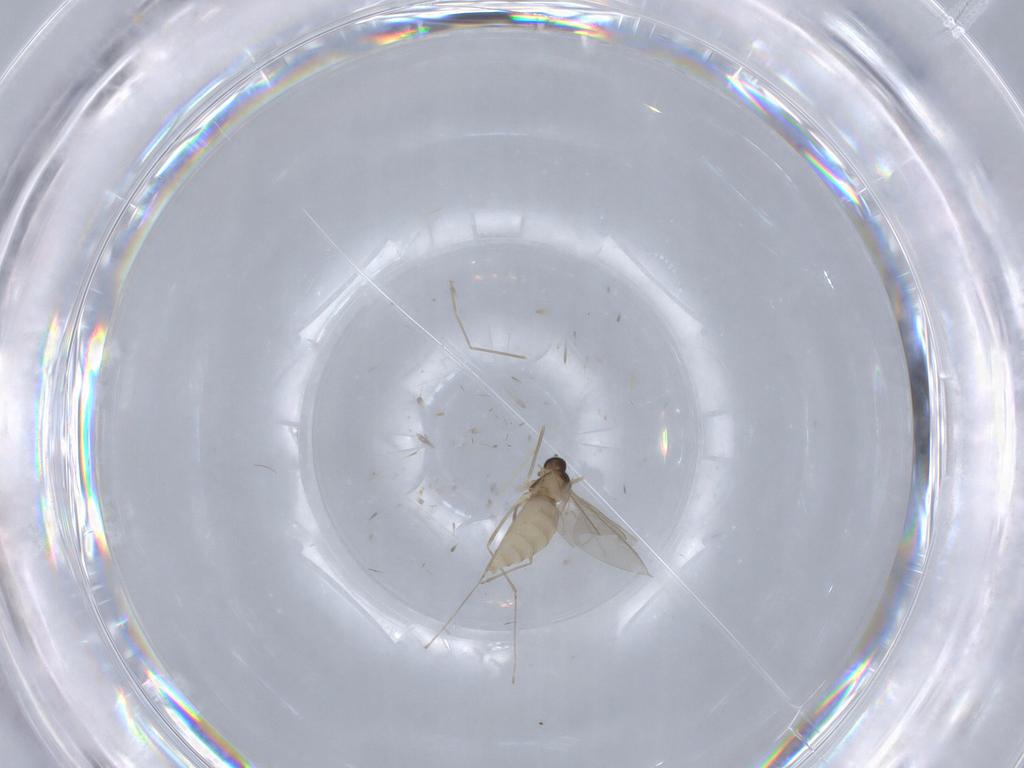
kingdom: Animalia
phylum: Arthropoda
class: Insecta
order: Diptera
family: Cecidomyiidae
